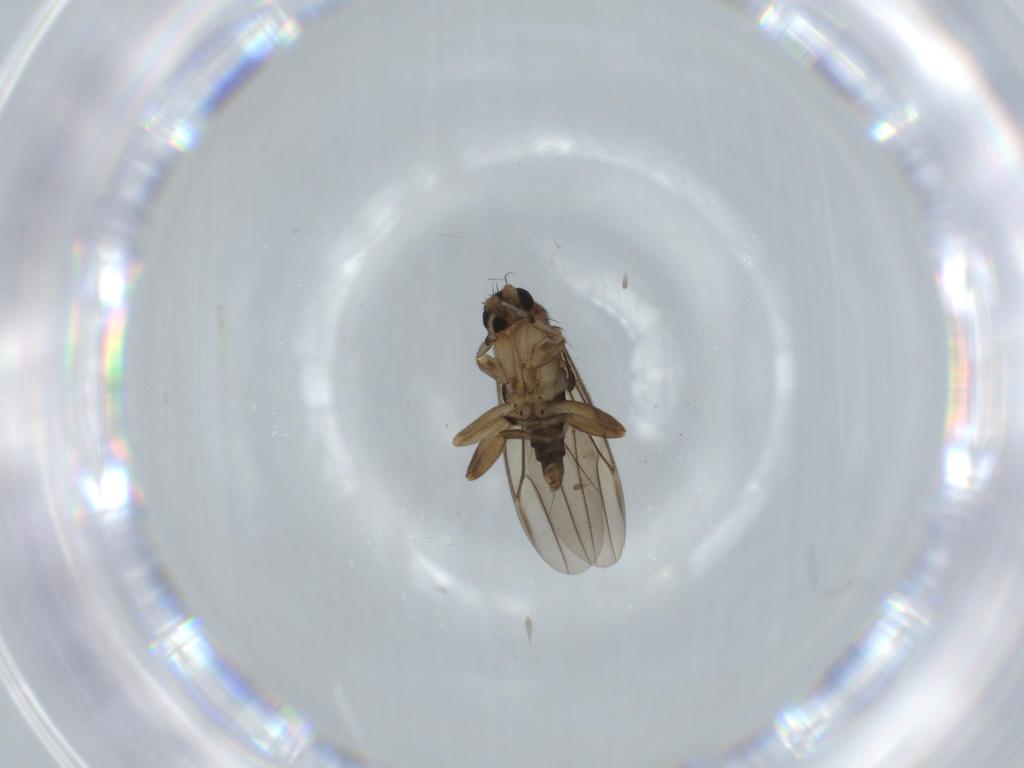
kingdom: Animalia
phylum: Arthropoda
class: Insecta
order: Diptera
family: Phoridae
